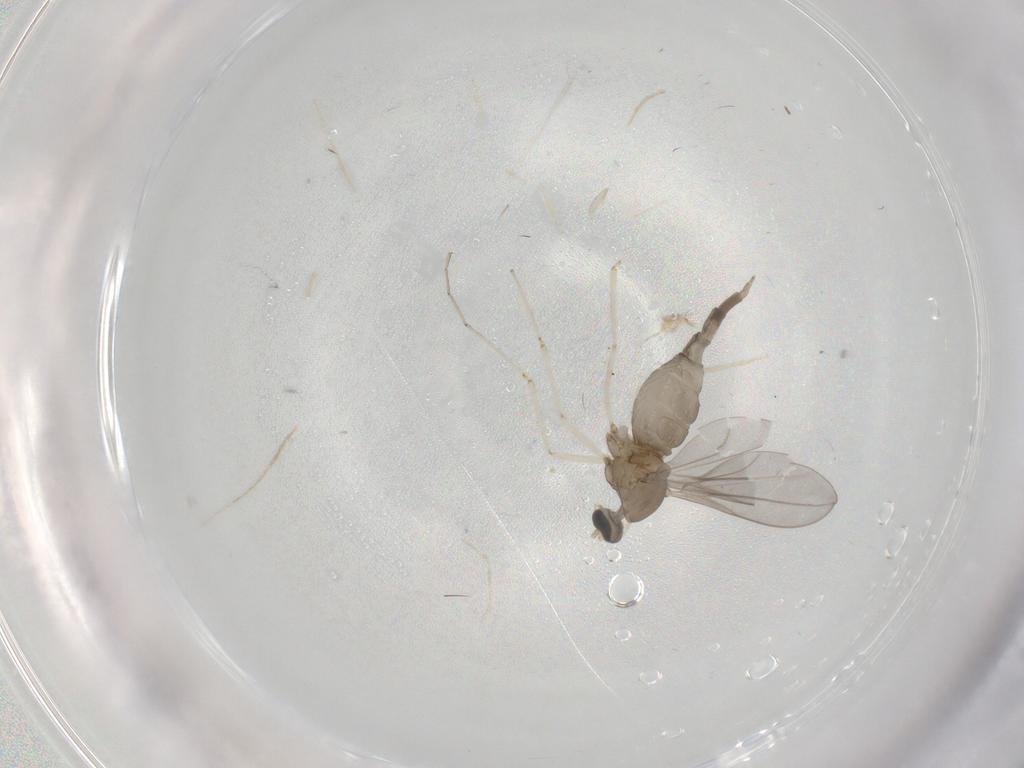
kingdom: Animalia
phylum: Arthropoda
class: Insecta
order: Diptera
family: Cecidomyiidae
